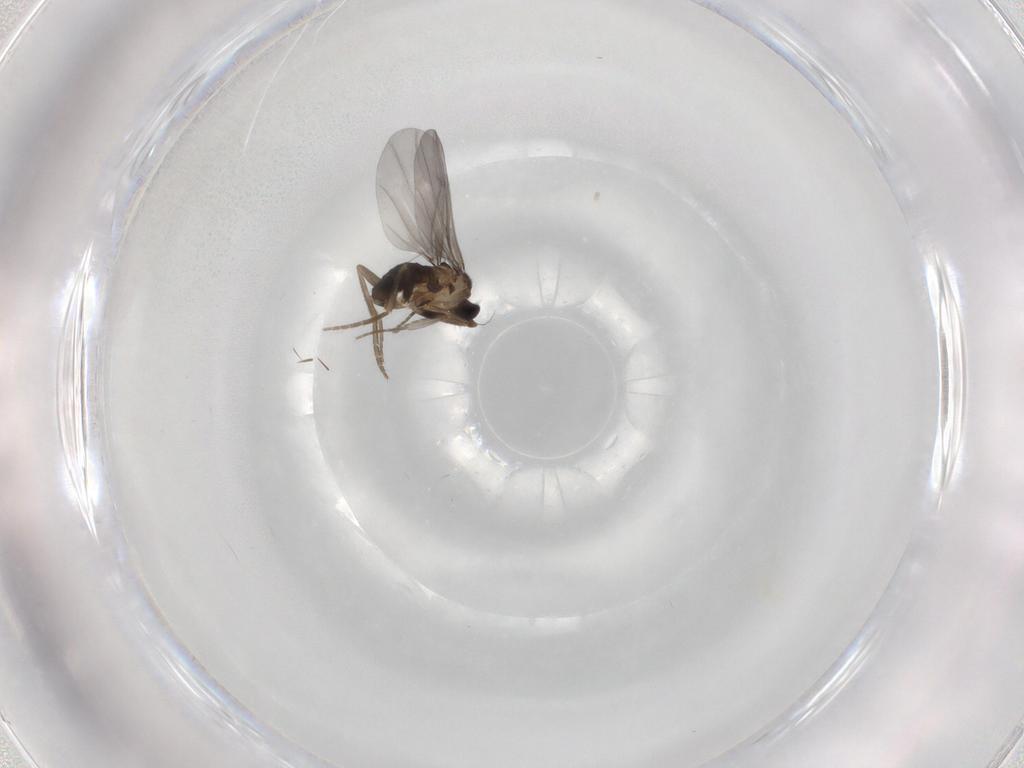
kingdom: Animalia
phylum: Arthropoda
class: Insecta
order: Diptera
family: Phoridae
